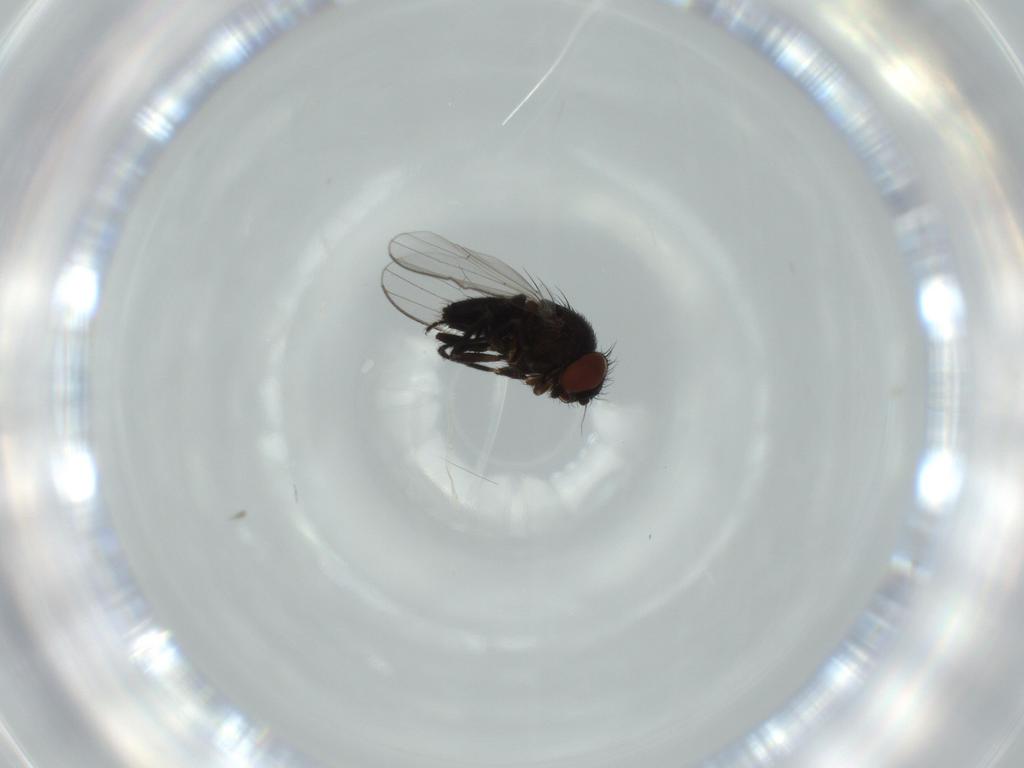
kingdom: Animalia
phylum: Arthropoda
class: Insecta
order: Diptera
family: Milichiidae
